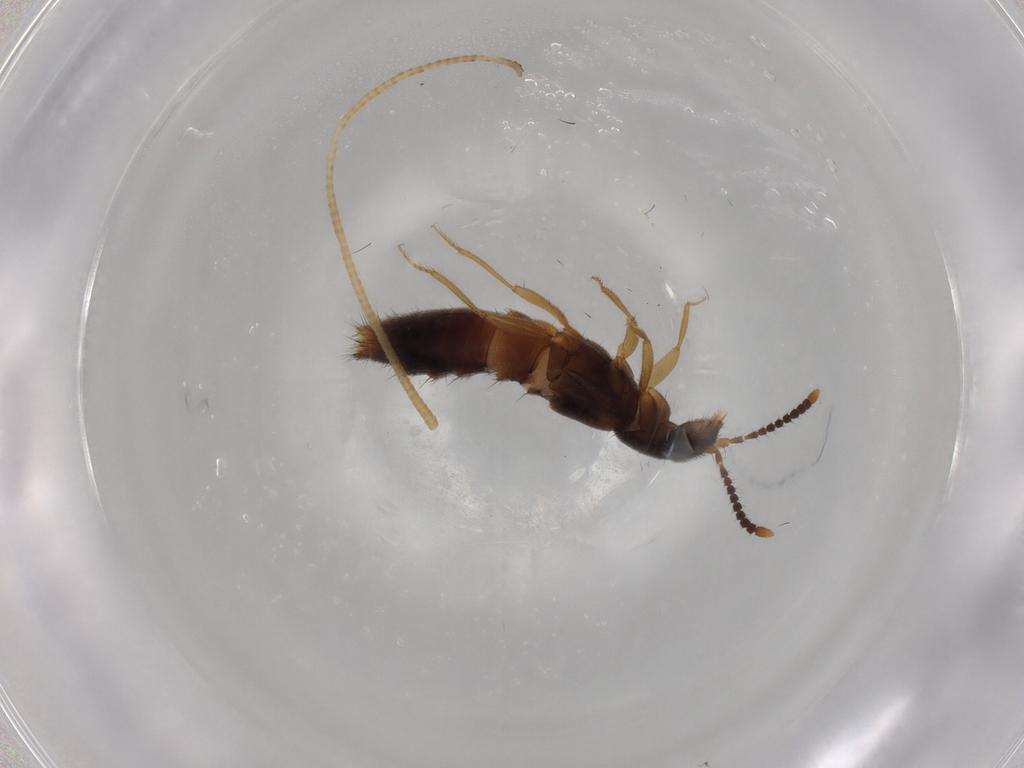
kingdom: Animalia
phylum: Arthropoda
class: Insecta
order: Coleoptera
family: Staphylinidae
